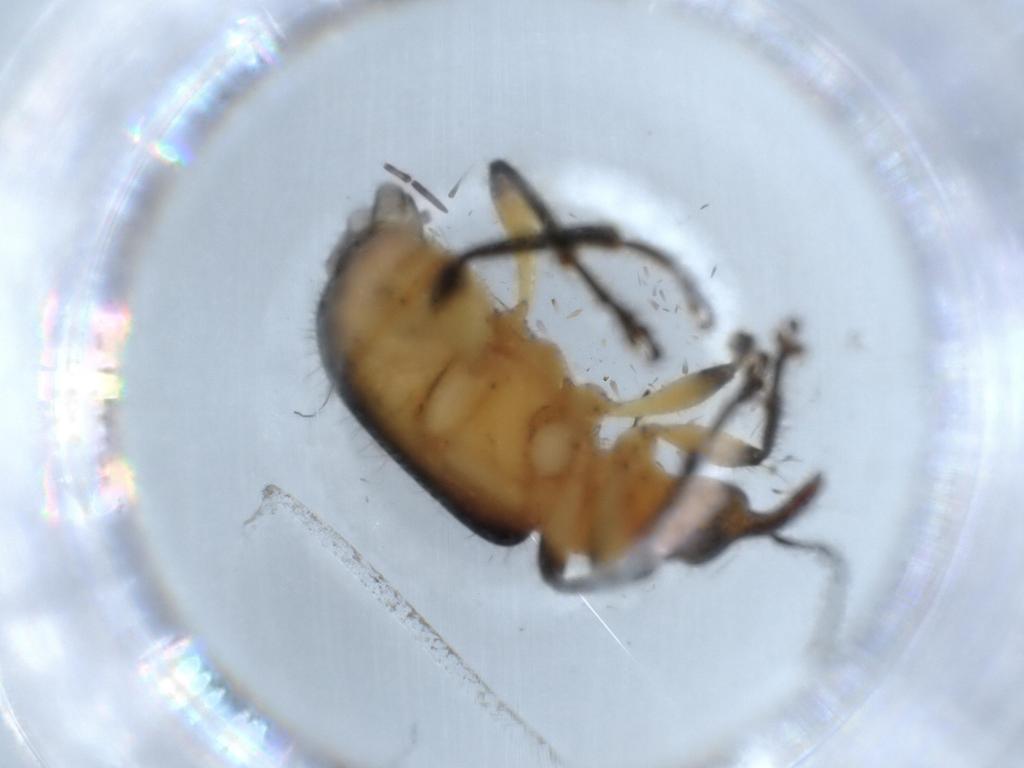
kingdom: Animalia
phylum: Arthropoda
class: Insecta
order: Coleoptera
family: Attelabidae
